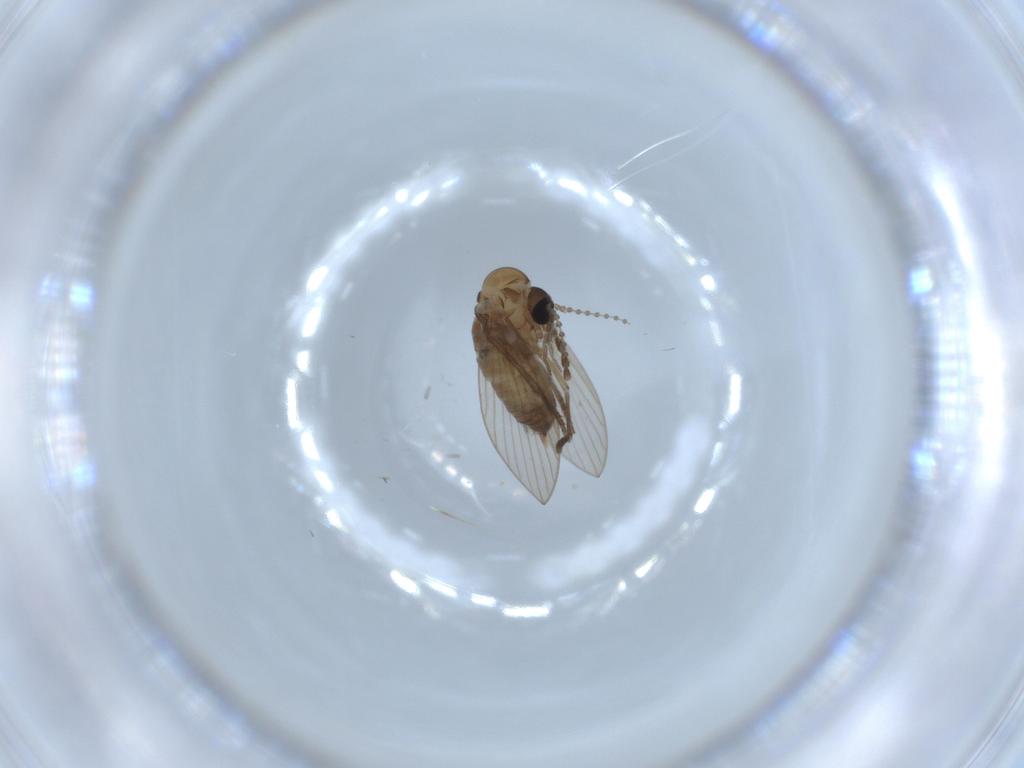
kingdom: Animalia
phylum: Arthropoda
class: Insecta
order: Diptera
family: Psychodidae
